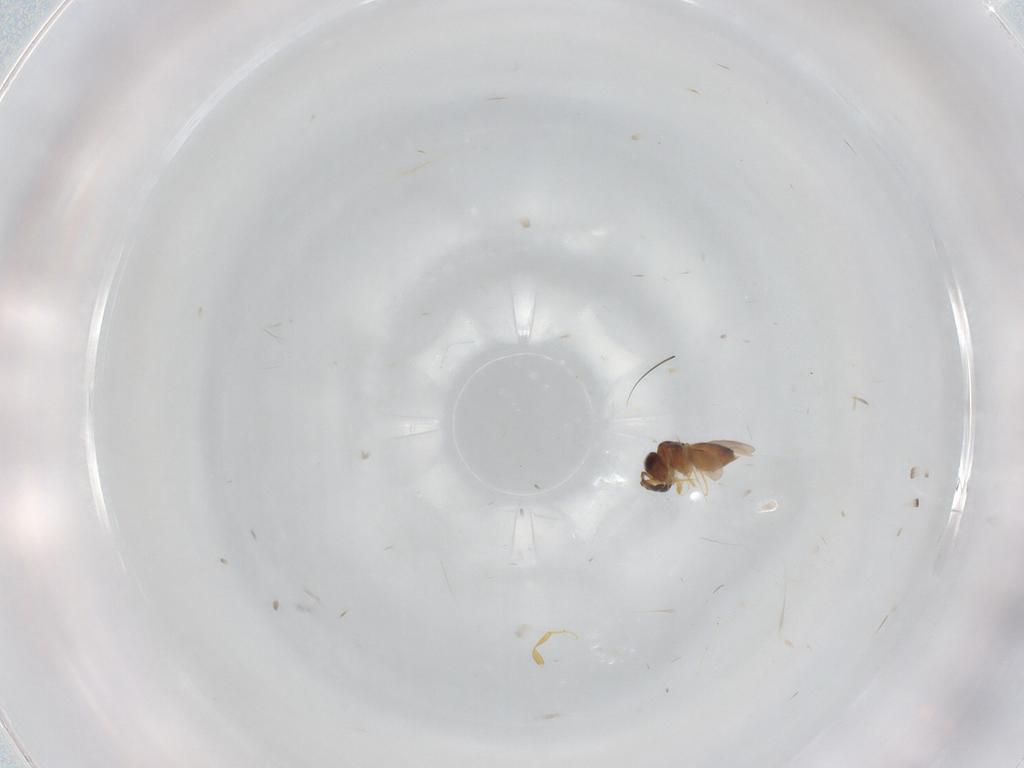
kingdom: Animalia
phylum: Arthropoda
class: Insecta
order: Hymenoptera
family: Ceraphronidae
